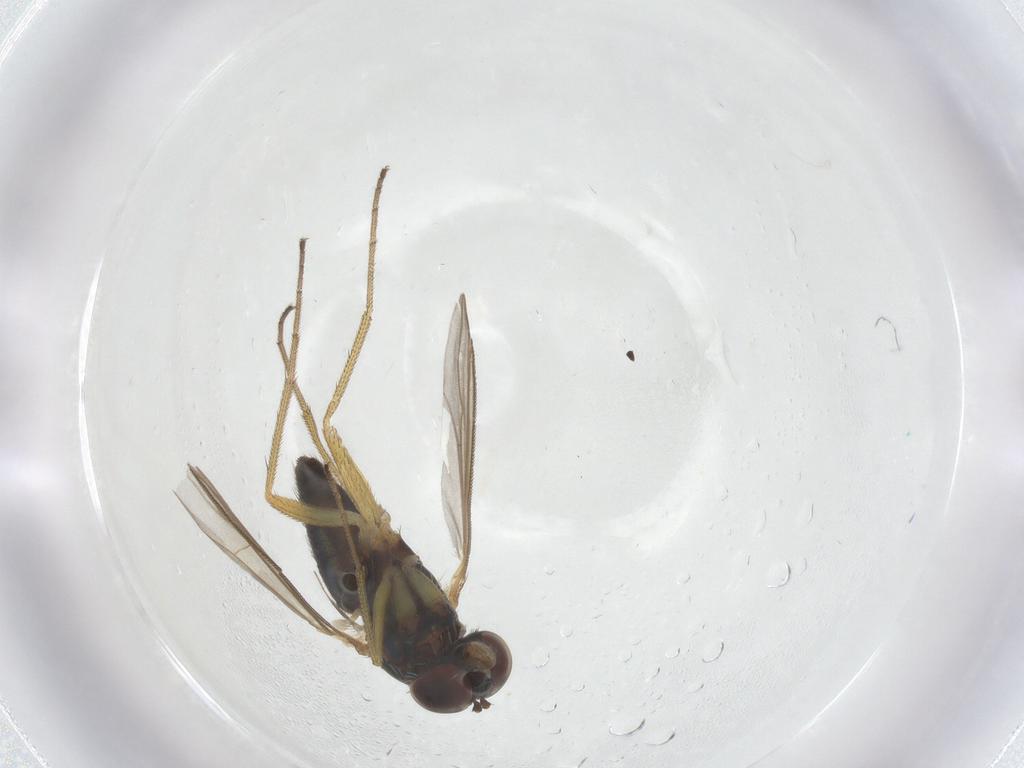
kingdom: Animalia
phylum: Arthropoda
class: Insecta
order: Diptera
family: Dolichopodidae
